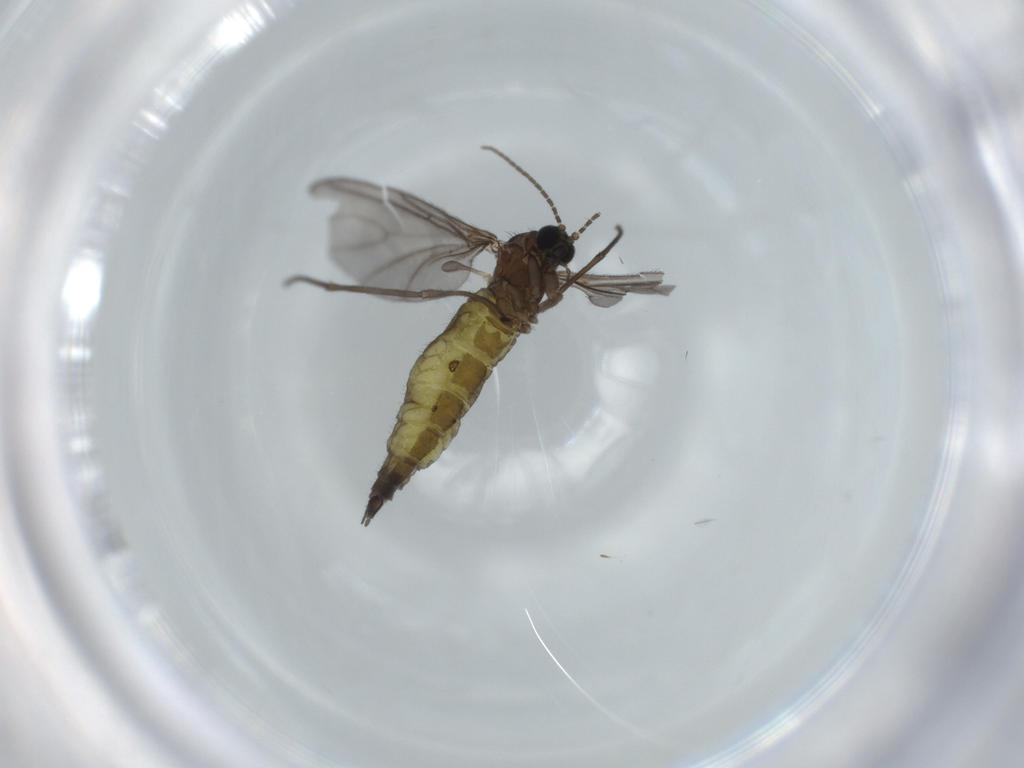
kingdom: Animalia
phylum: Arthropoda
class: Insecta
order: Diptera
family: Sciaridae
